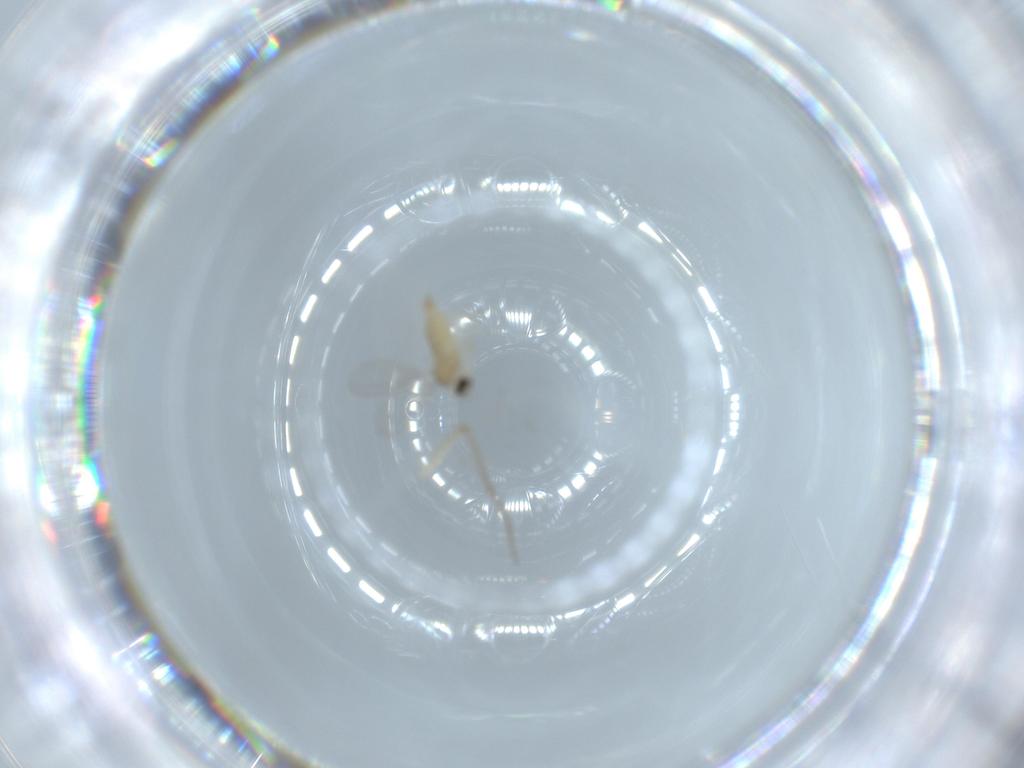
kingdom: Animalia
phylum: Arthropoda
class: Insecta
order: Diptera
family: Cecidomyiidae
